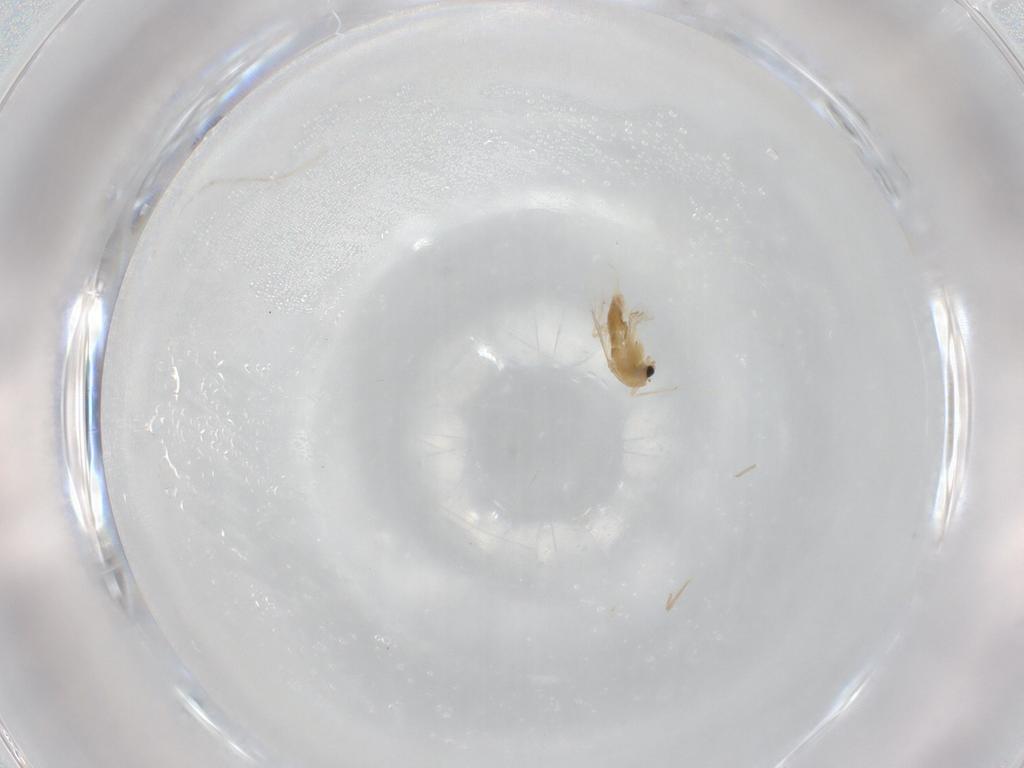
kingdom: Animalia
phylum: Arthropoda
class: Insecta
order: Diptera
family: Chironomidae
